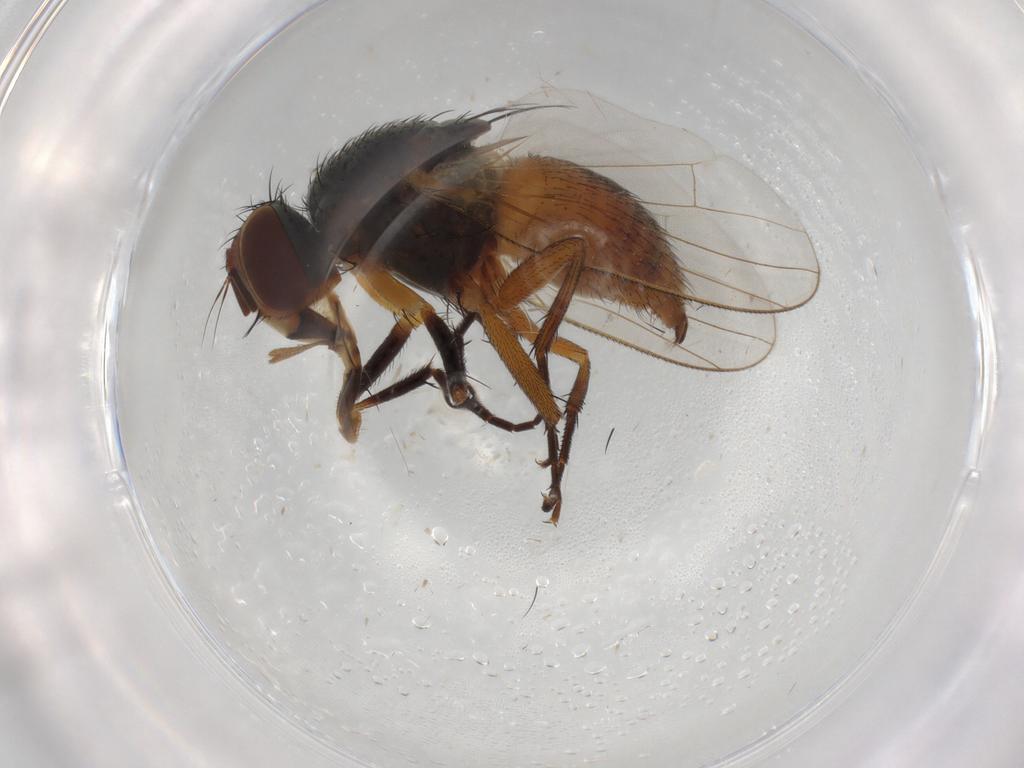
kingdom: Animalia
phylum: Arthropoda
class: Insecta
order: Diptera
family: Muscidae
